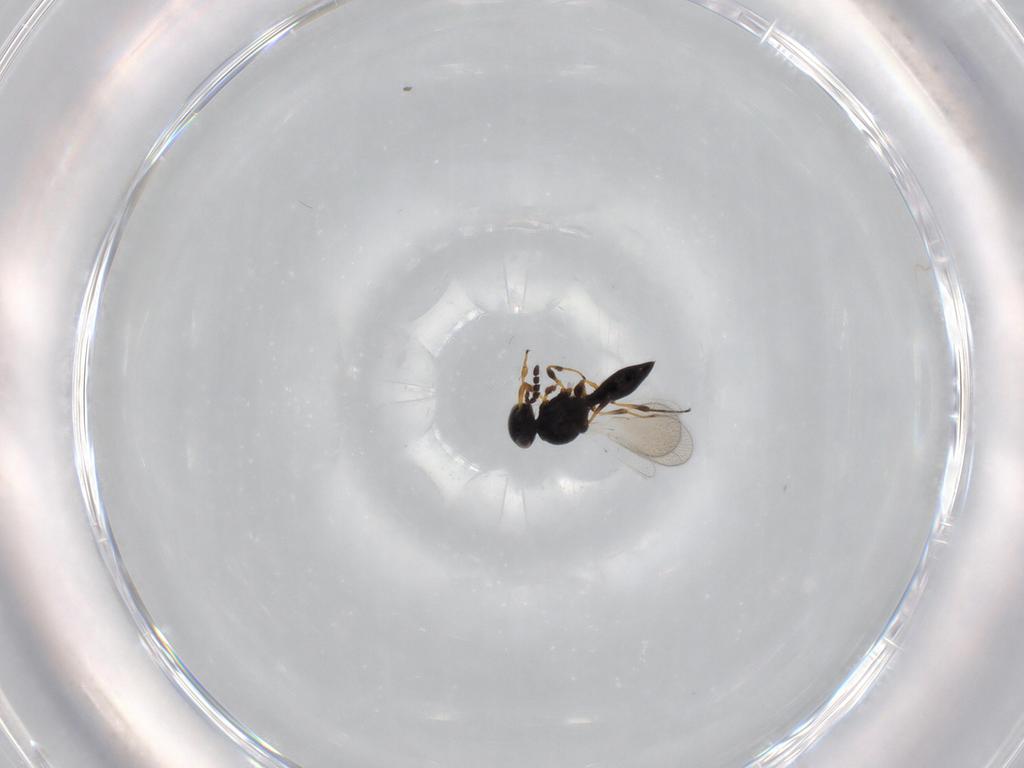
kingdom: Animalia
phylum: Arthropoda
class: Insecta
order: Hymenoptera
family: Platygastridae
